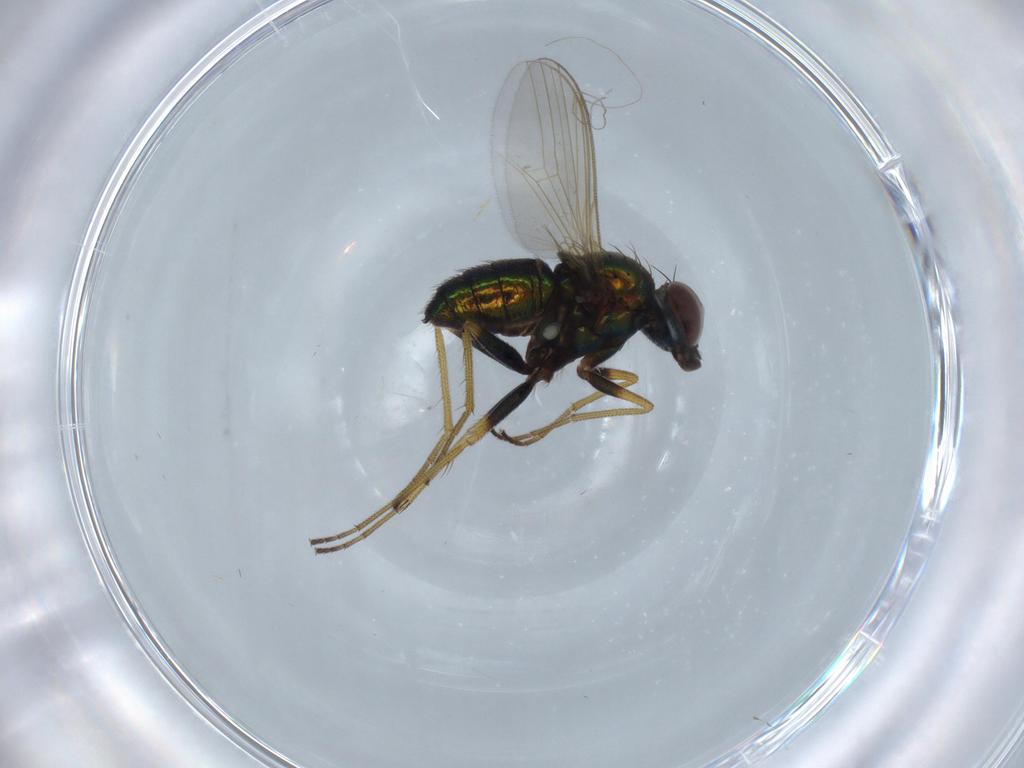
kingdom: Animalia
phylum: Arthropoda
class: Insecta
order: Diptera
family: Dolichopodidae
